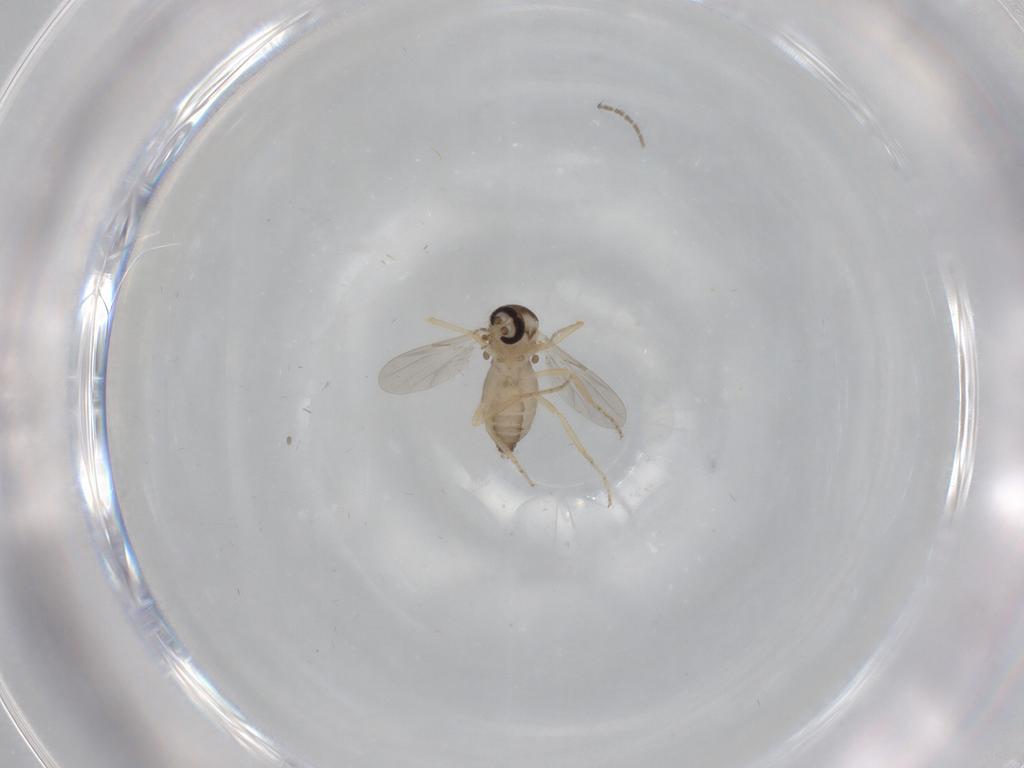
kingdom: Animalia
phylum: Arthropoda
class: Insecta
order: Diptera
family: Ceratopogonidae
